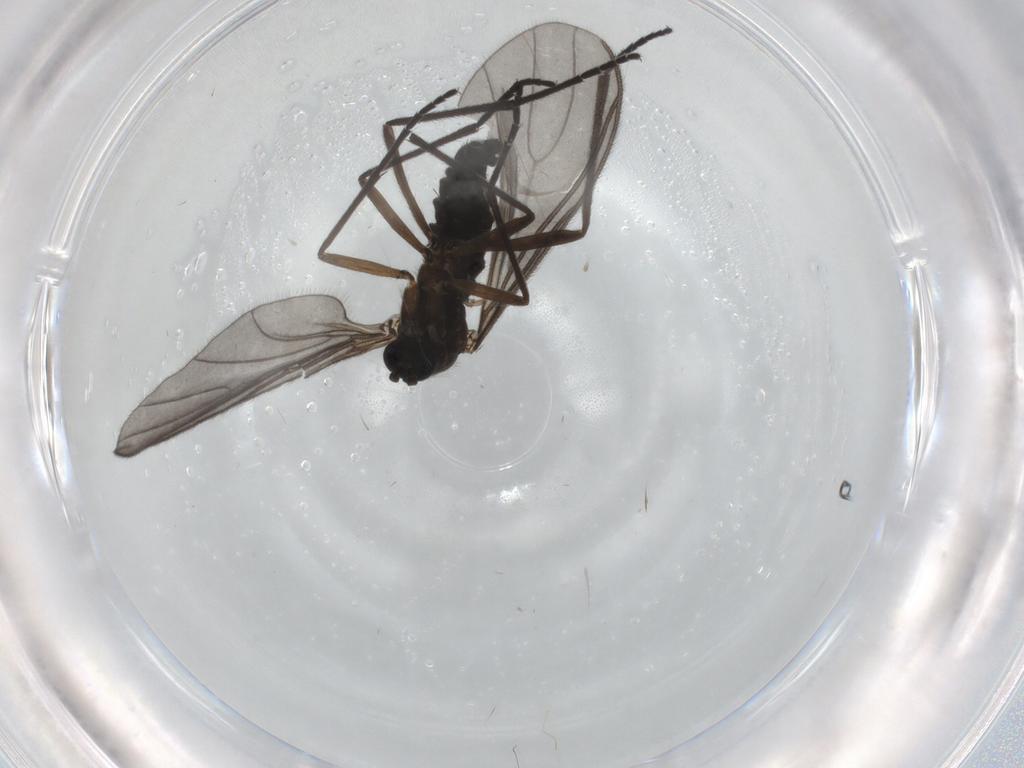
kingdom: Animalia
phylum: Arthropoda
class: Insecta
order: Diptera
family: Sciaridae
